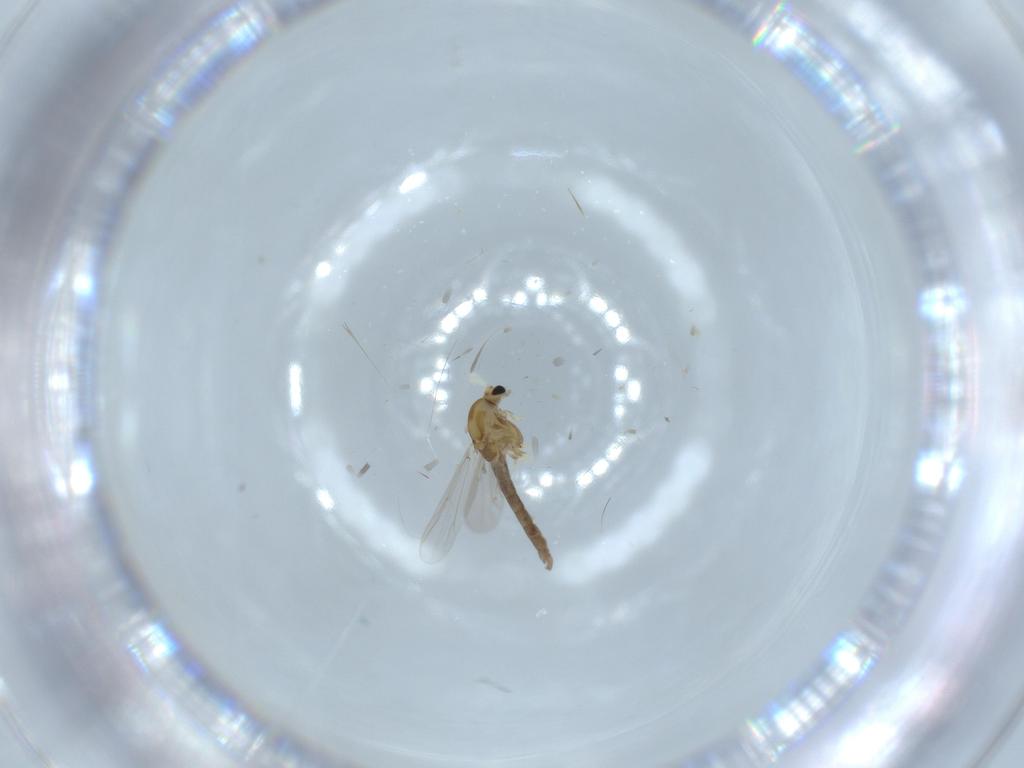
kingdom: Animalia
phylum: Arthropoda
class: Insecta
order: Diptera
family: Chironomidae
